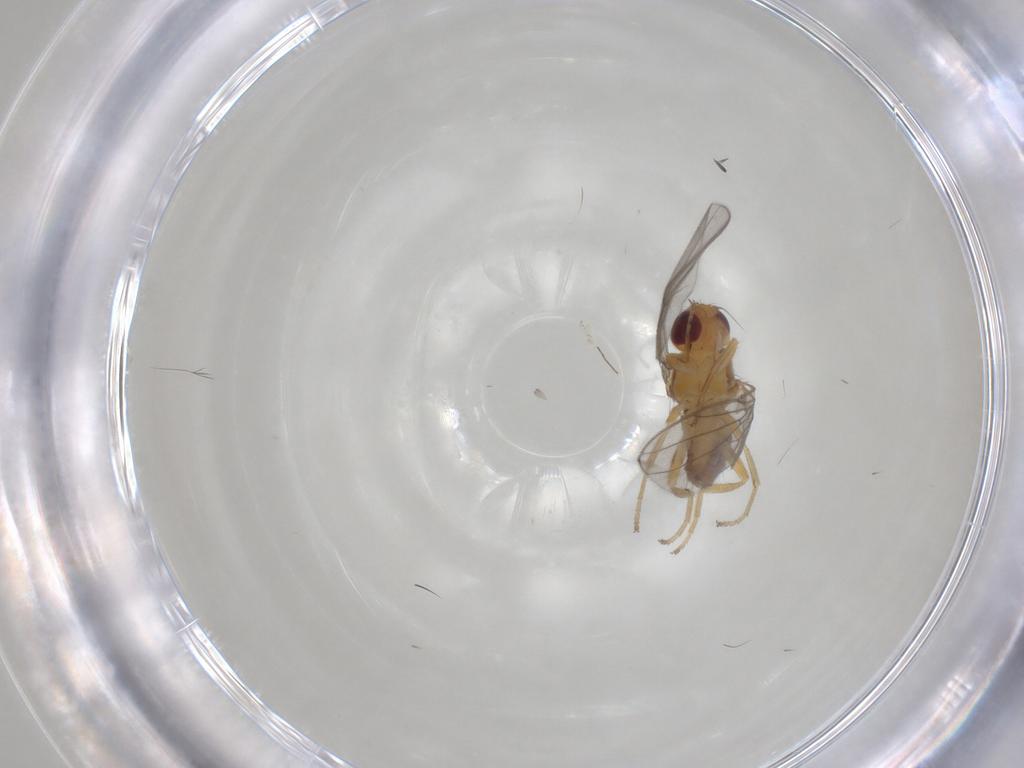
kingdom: Animalia
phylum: Arthropoda
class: Insecta
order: Diptera
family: Chloropidae
